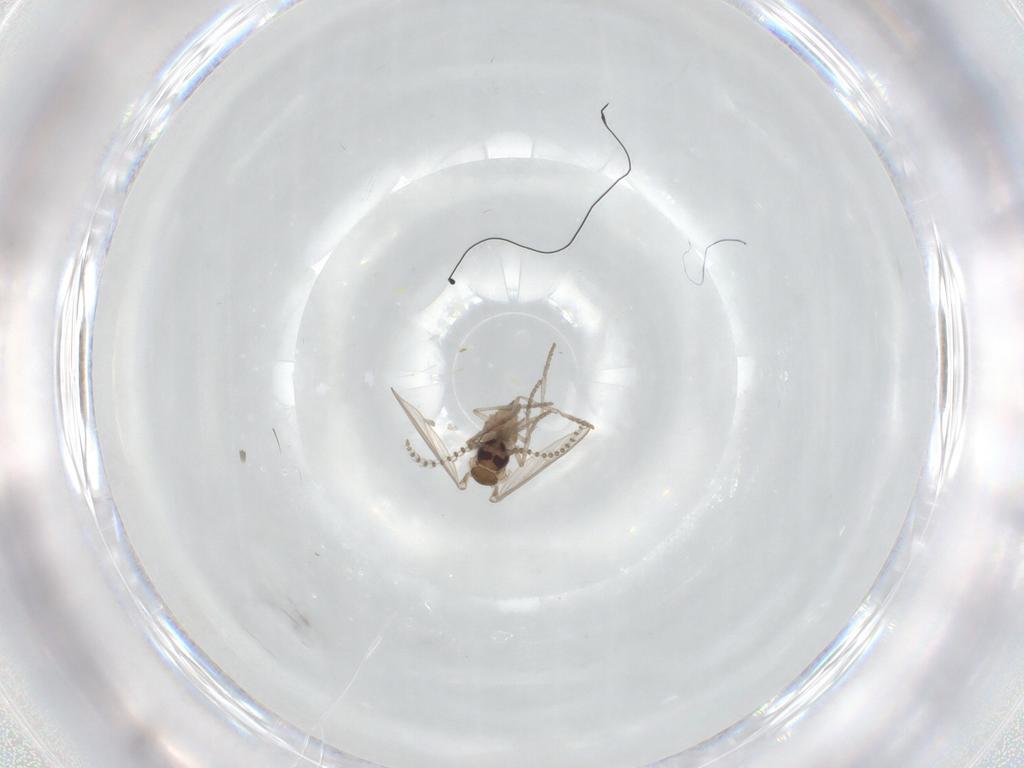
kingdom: Animalia
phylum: Arthropoda
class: Insecta
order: Diptera
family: Psychodidae
